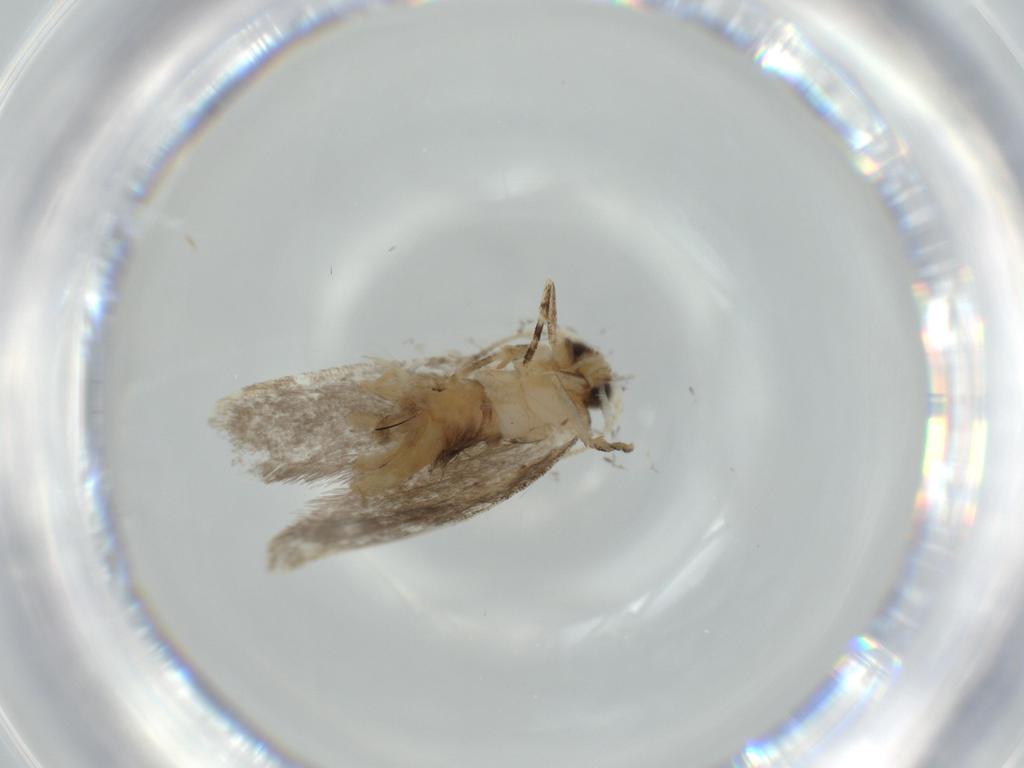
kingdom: Animalia
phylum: Arthropoda
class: Insecta
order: Lepidoptera
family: Tineidae
